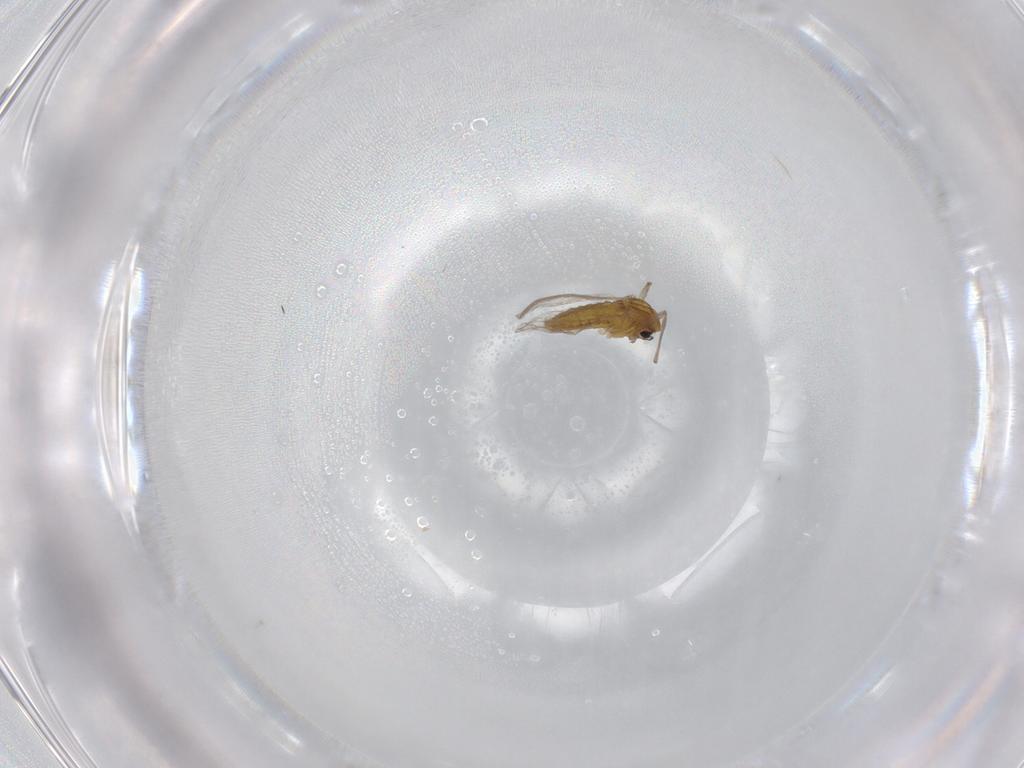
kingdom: Animalia
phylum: Arthropoda
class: Insecta
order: Diptera
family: Chironomidae
